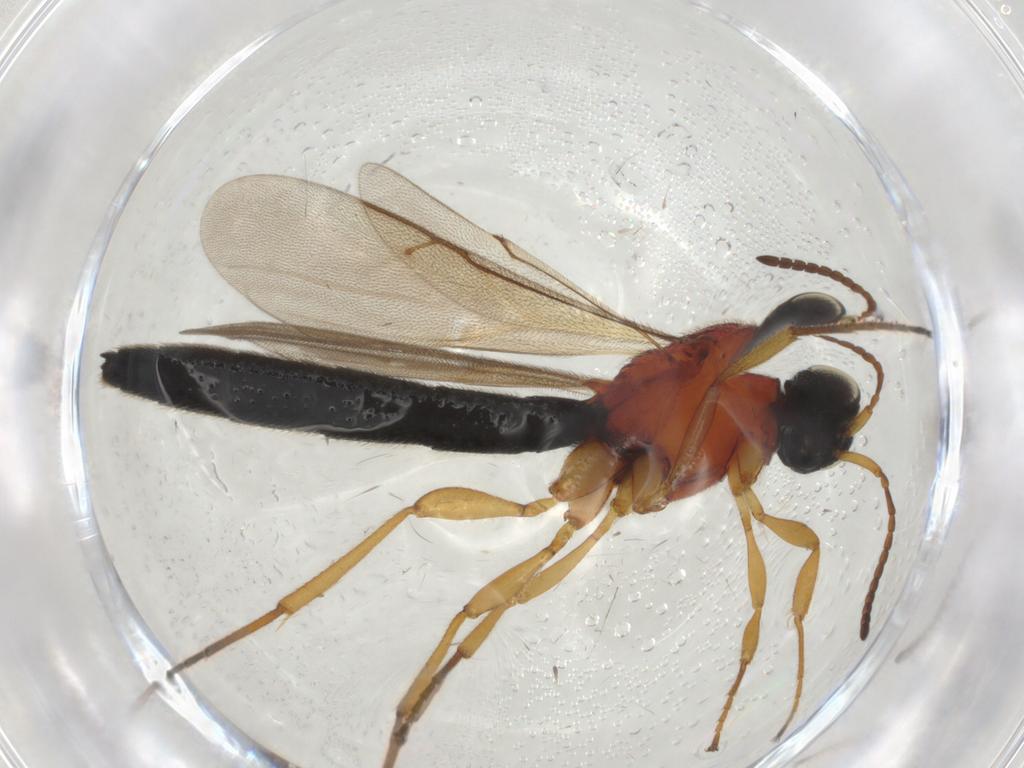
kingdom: Animalia
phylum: Arthropoda
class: Insecta
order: Hymenoptera
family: Scelionidae
